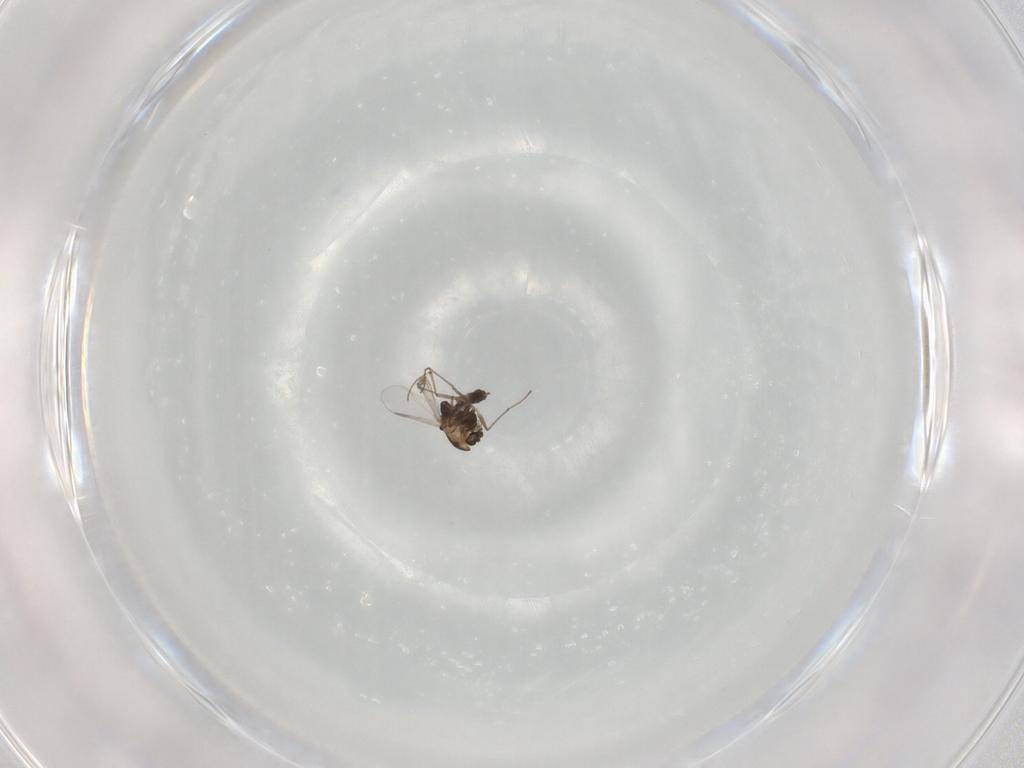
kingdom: Animalia
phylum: Arthropoda
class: Insecta
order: Diptera
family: Chironomidae
